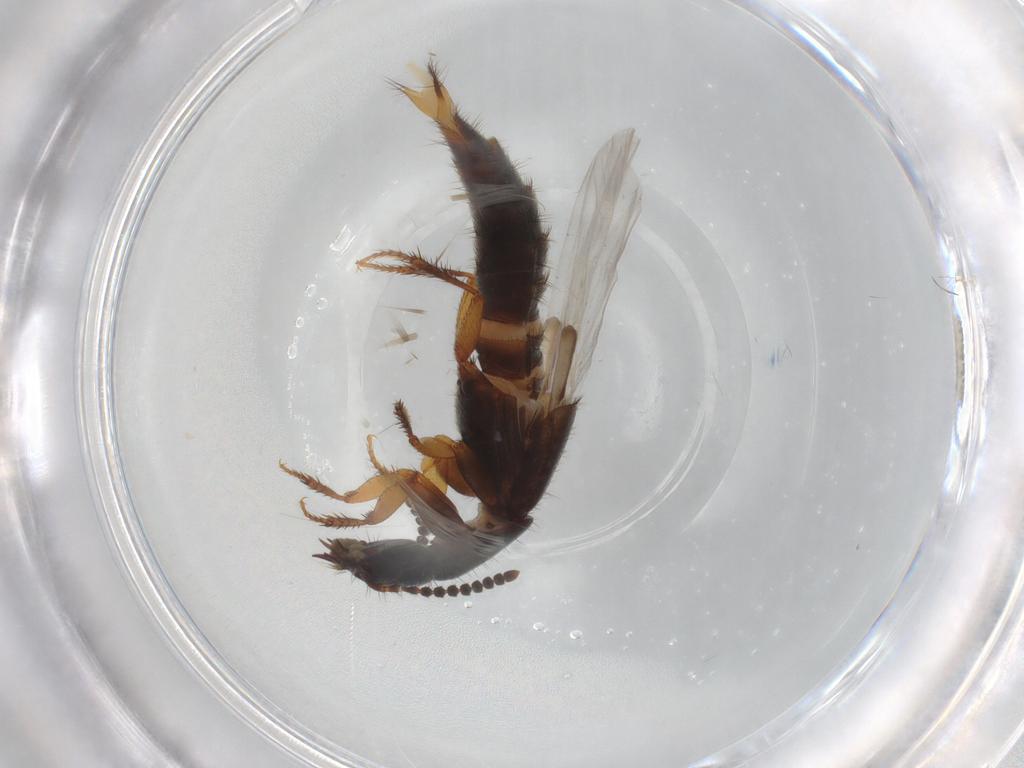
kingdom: Animalia
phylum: Arthropoda
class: Insecta
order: Coleoptera
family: Staphylinidae
